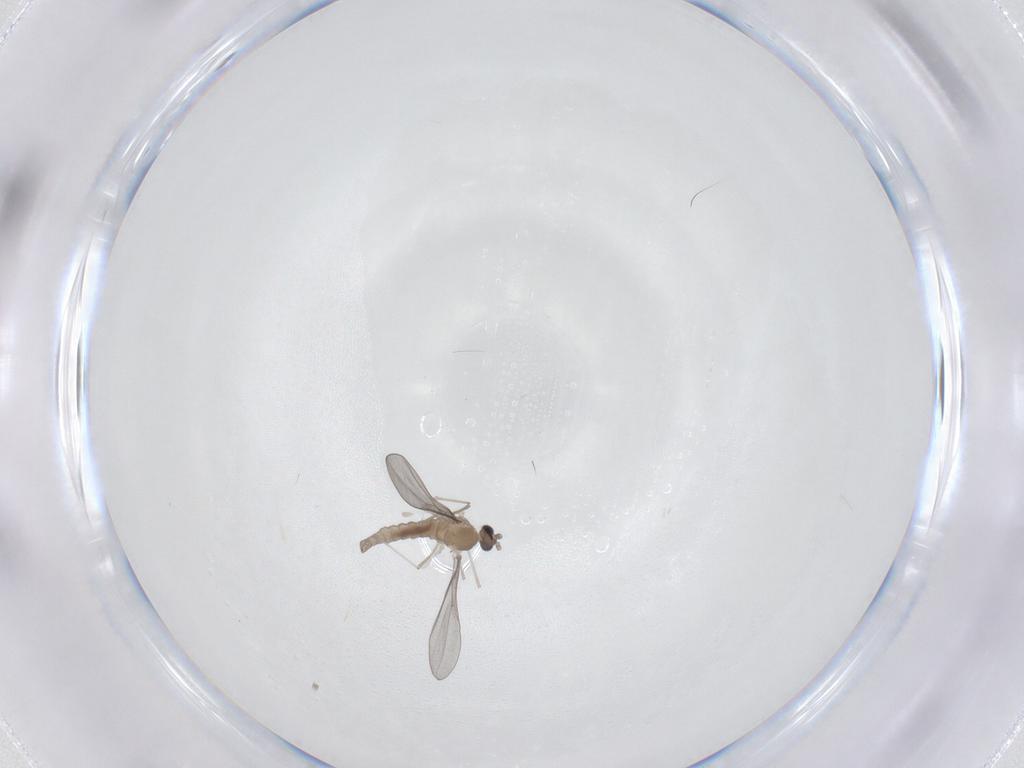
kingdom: Animalia
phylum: Arthropoda
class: Insecta
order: Diptera
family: Cecidomyiidae
